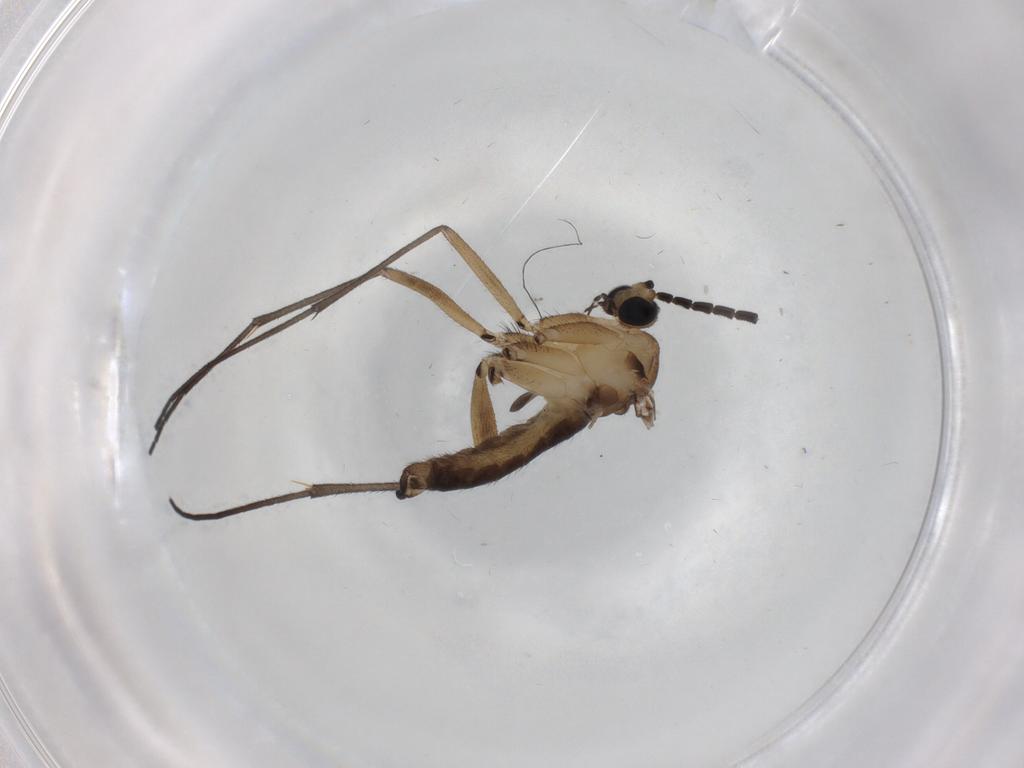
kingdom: Animalia
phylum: Arthropoda
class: Insecta
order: Diptera
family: Sciaridae
